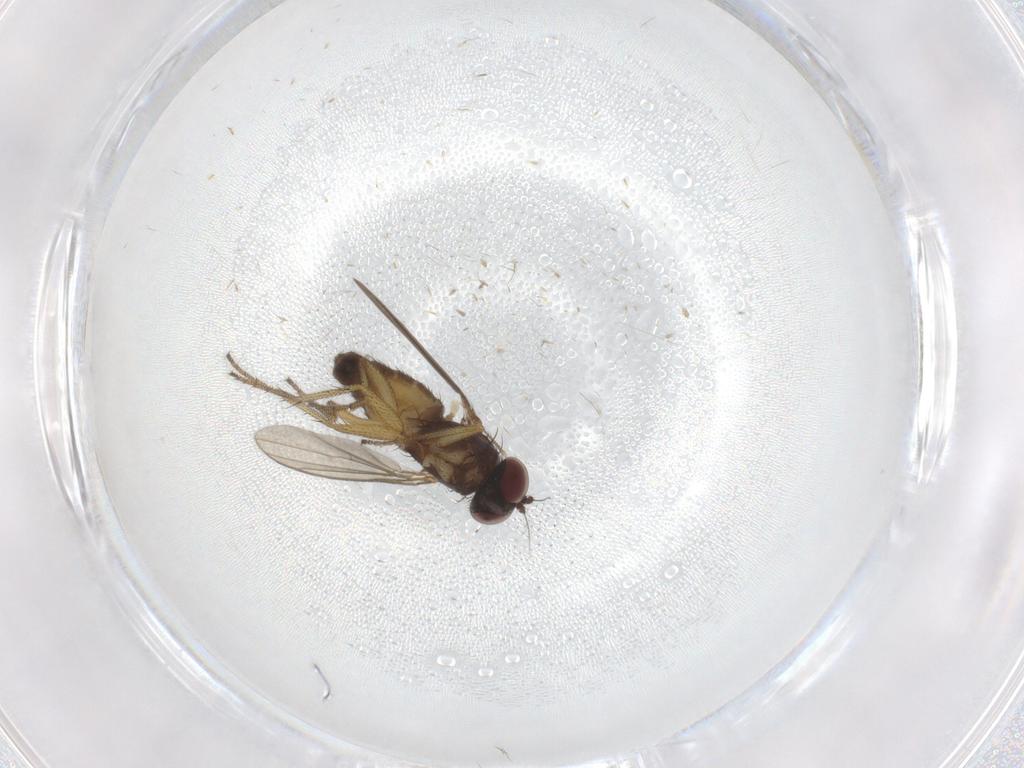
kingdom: Animalia
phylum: Arthropoda
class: Insecta
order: Diptera
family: Dolichopodidae
